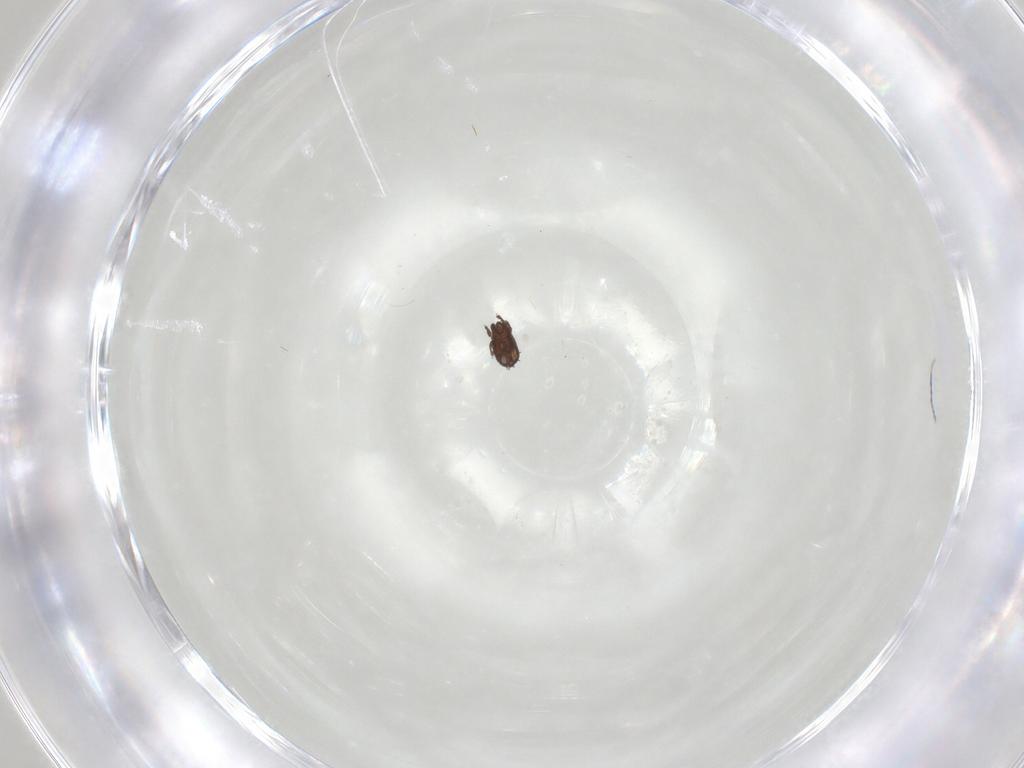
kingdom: Animalia
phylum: Arthropoda
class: Arachnida
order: Sarcoptiformes
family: Cymbaeremaeidae
